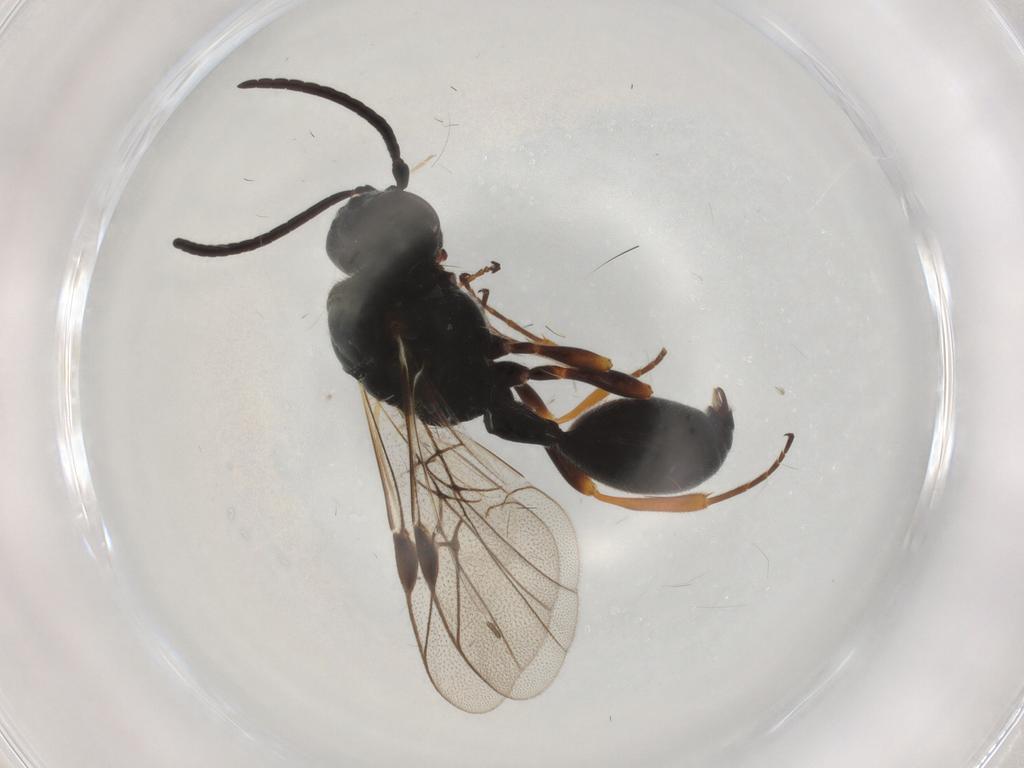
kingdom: Animalia
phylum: Arthropoda
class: Insecta
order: Hymenoptera
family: Heloridae
